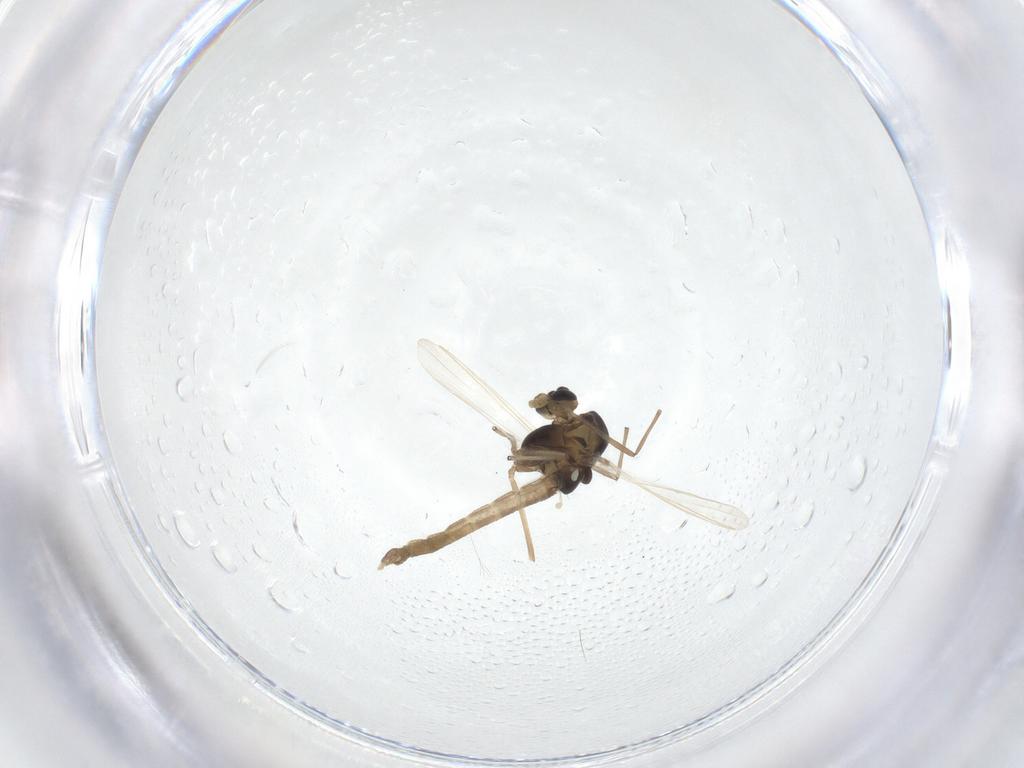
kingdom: Animalia
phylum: Arthropoda
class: Insecta
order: Diptera
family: Chironomidae
